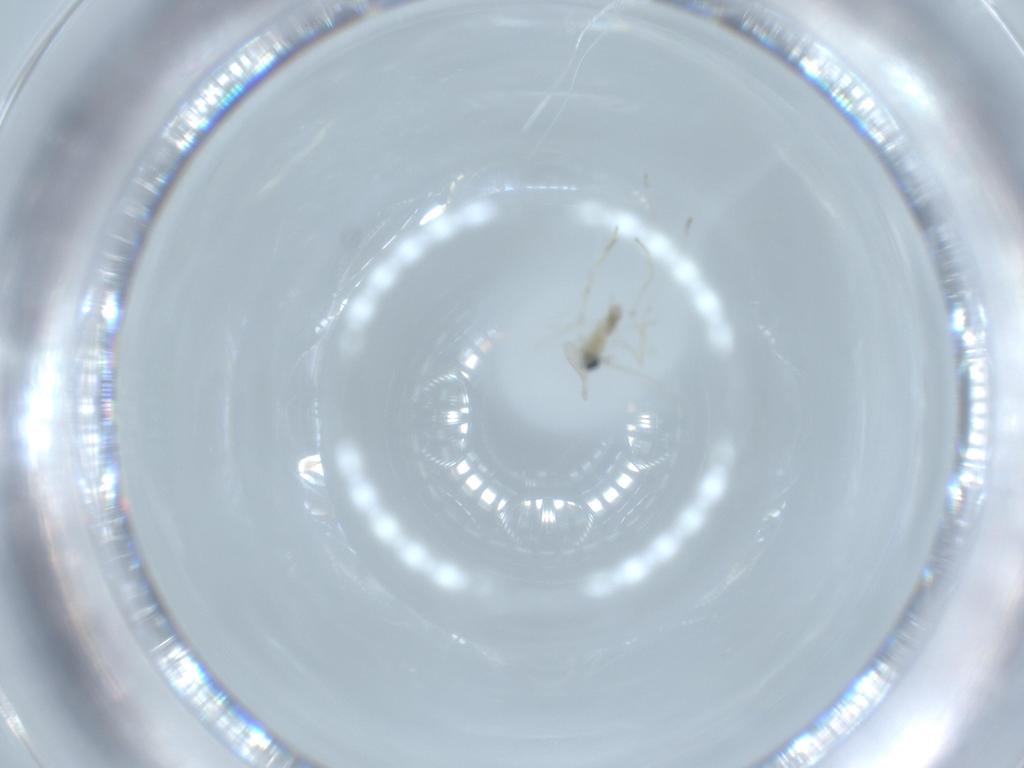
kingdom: Animalia
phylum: Arthropoda
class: Insecta
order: Diptera
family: Cecidomyiidae
